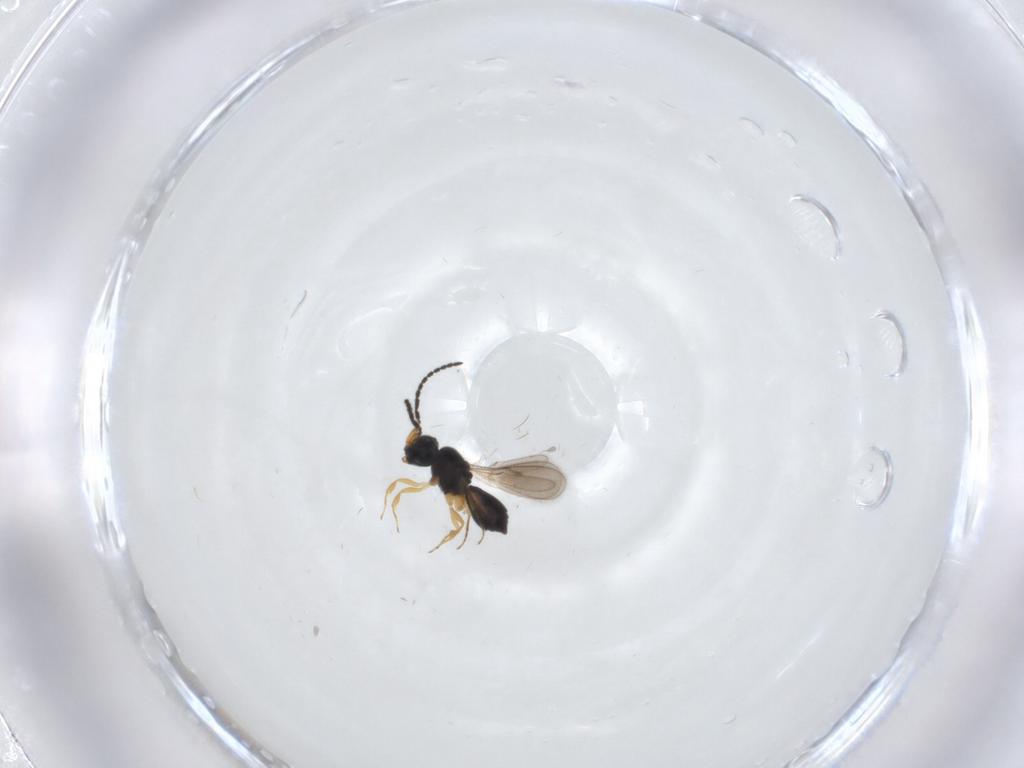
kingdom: Animalia
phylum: Arthropoda
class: Insecta
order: Hymenoptera
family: Scelionidae
